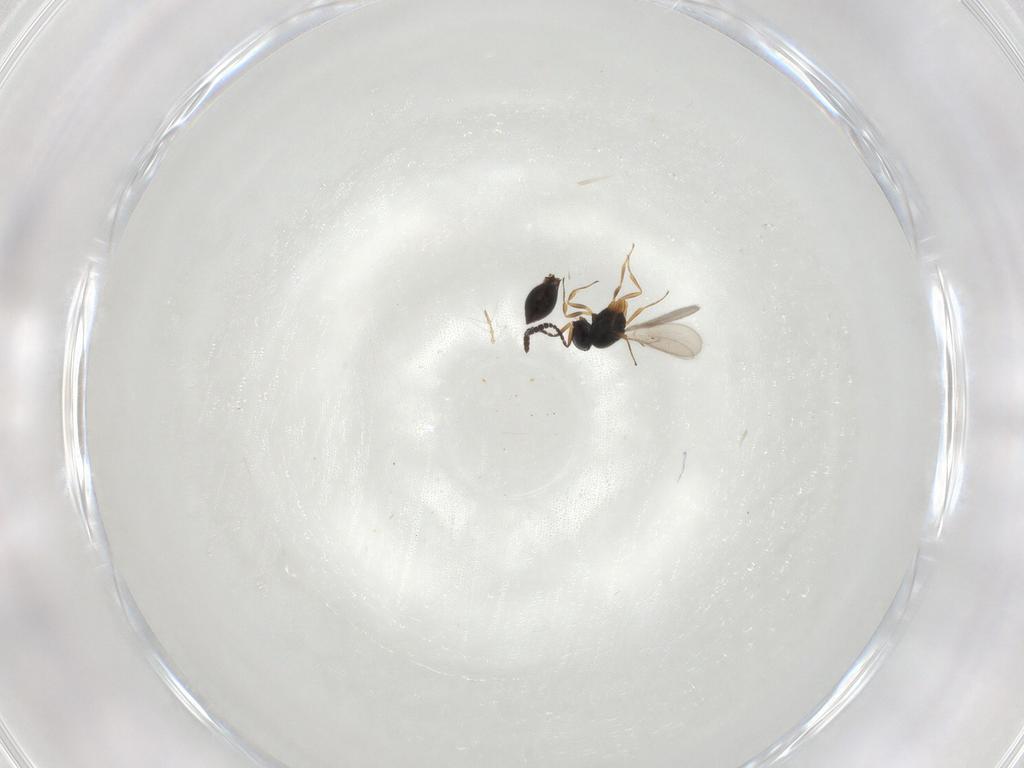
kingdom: Animalia
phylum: Arthropoda
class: Insecta
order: Hymenoptera
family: Scelionidae
